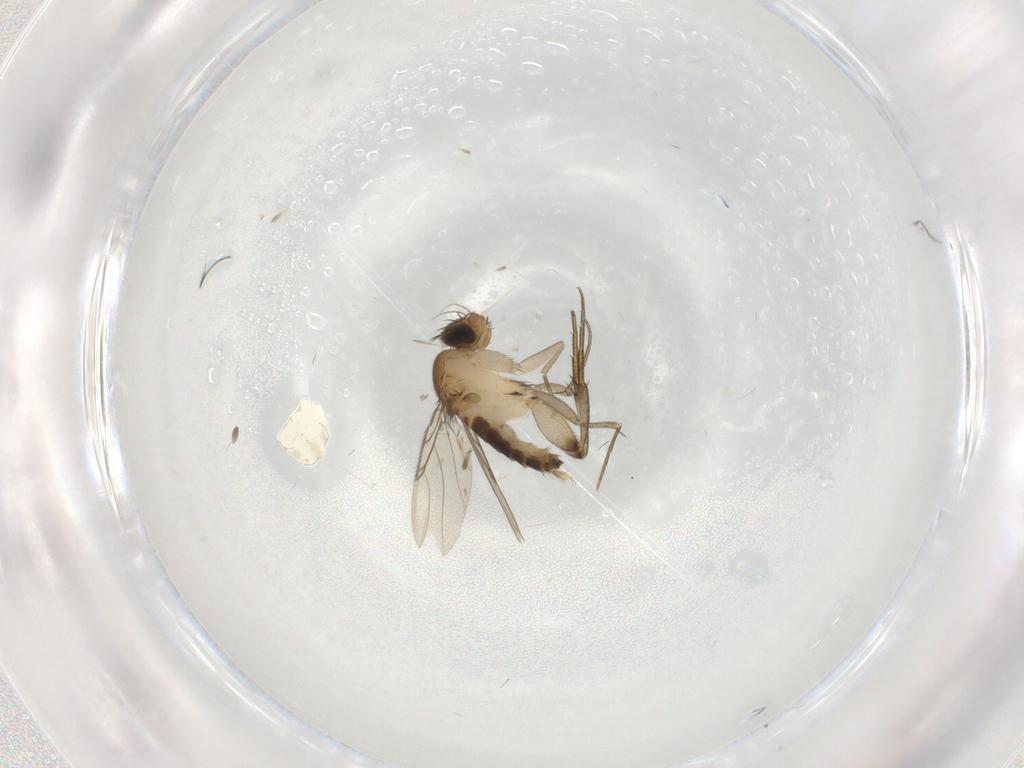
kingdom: Animalia
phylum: Arthropoda
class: Insecta
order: Diptera
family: Phoridae
